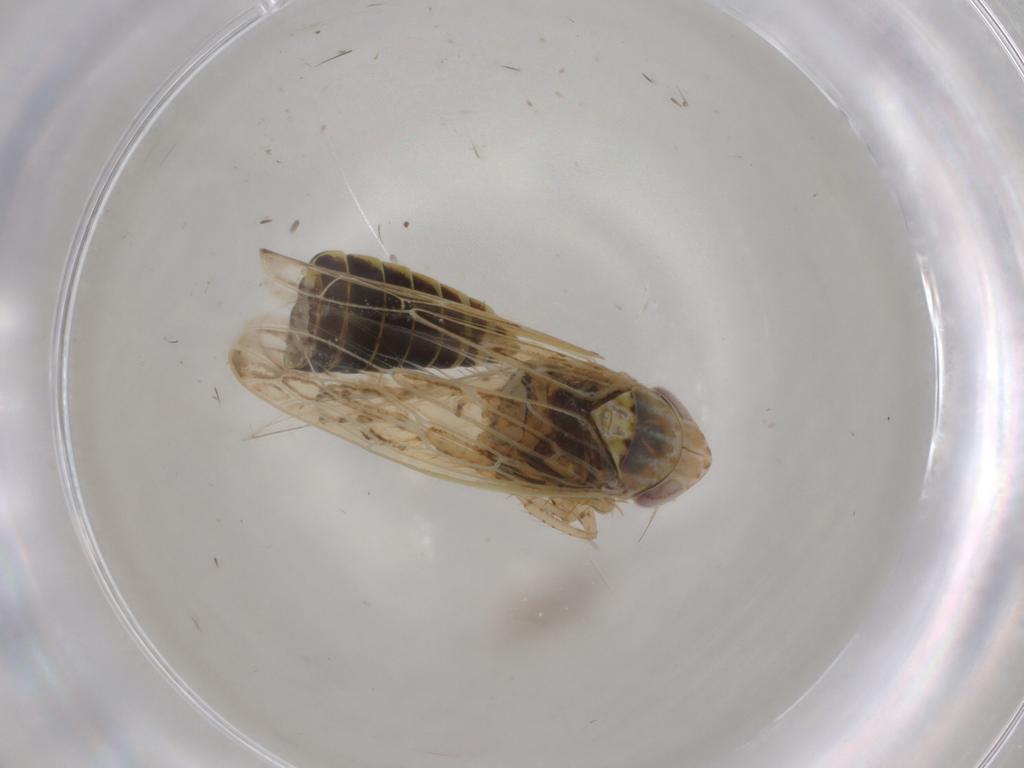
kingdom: Animalia
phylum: Arthropoda
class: Insecta
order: Hemiptera
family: Cicadellidae
